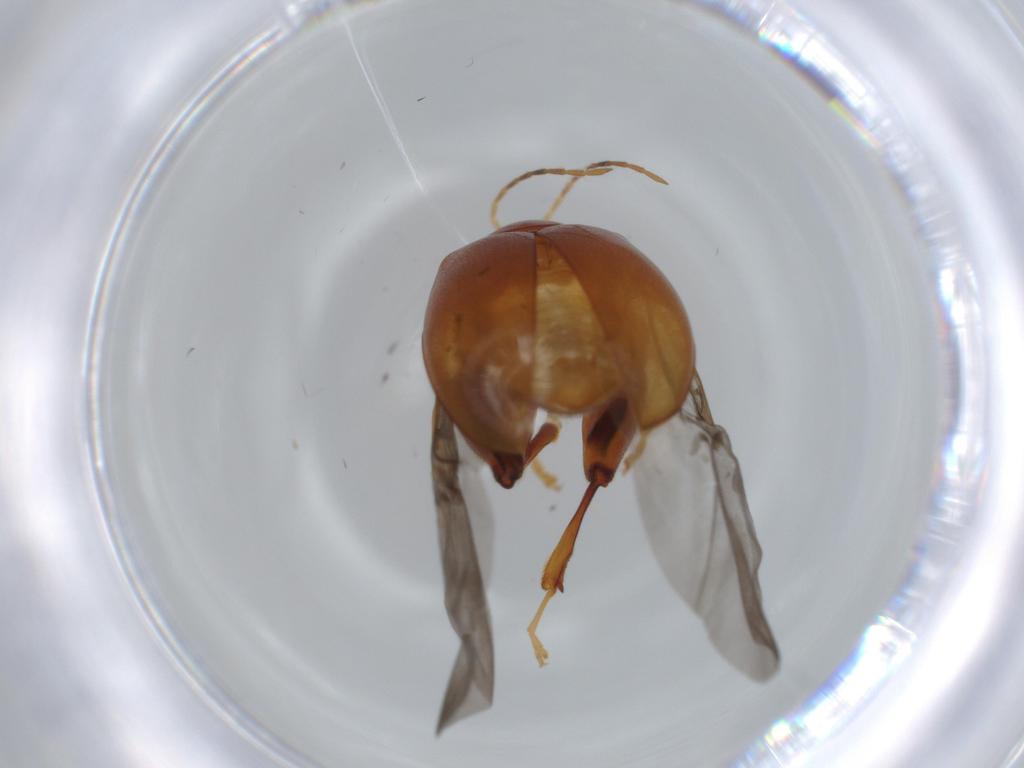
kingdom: Animalia
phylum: Arthropoda
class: Insecta
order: Coleoptera
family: Chrysomelidae
